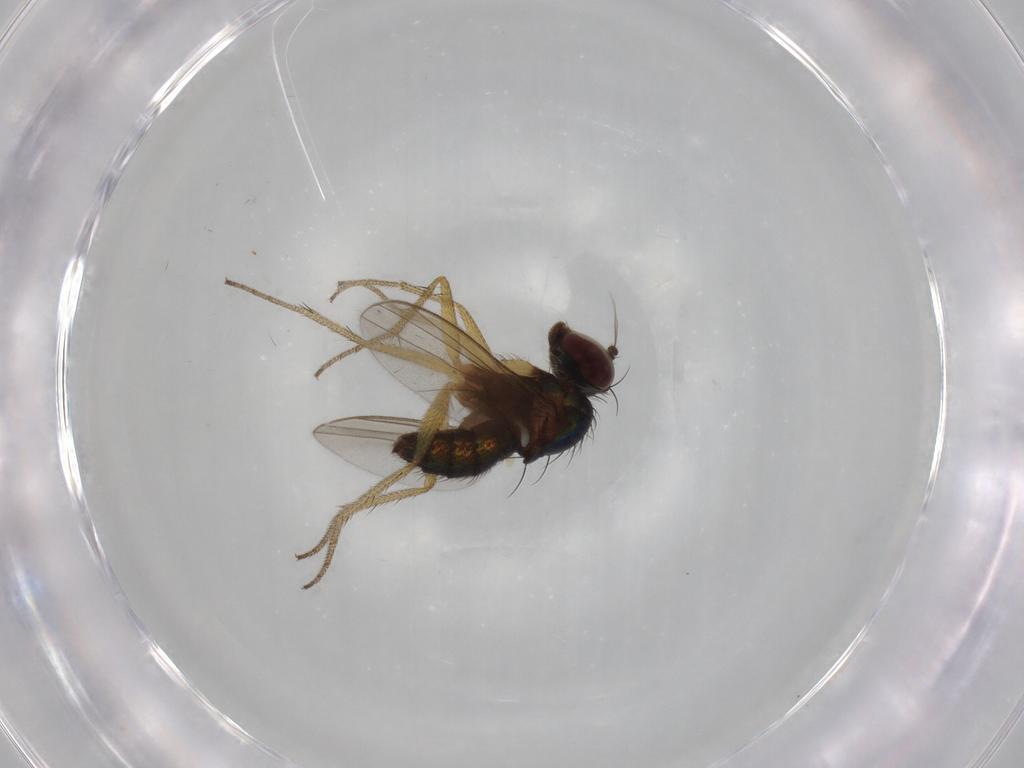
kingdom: Animalia
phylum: Arthropoda
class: Insecta
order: Diptera
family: Dolichopodidae
